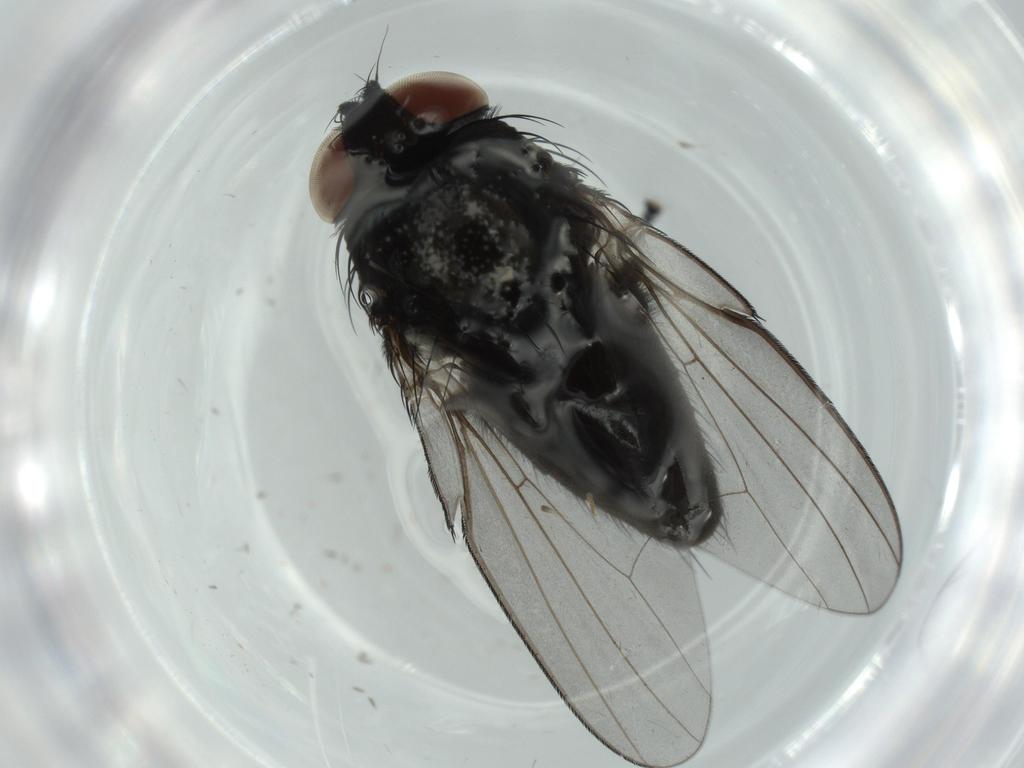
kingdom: Animalia
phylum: Arthropoda
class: Insecta
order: Diptera
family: Milichiidae
